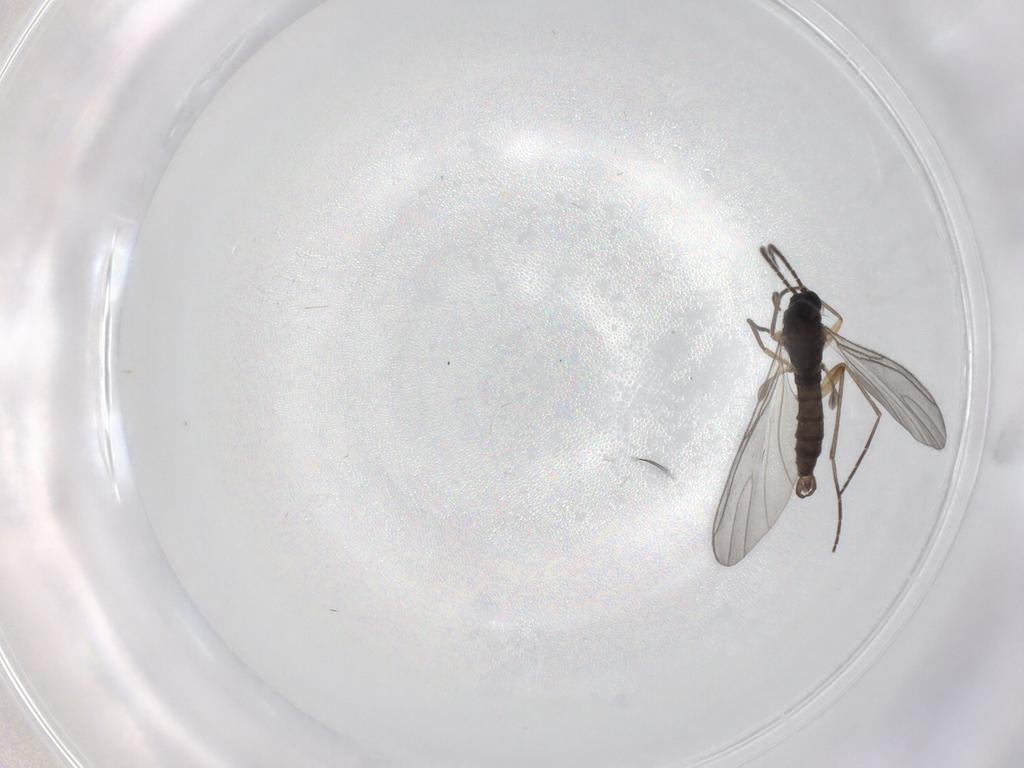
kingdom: Animalia
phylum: Arthropoda
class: Insecta
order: Diptera
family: Sciaridae
